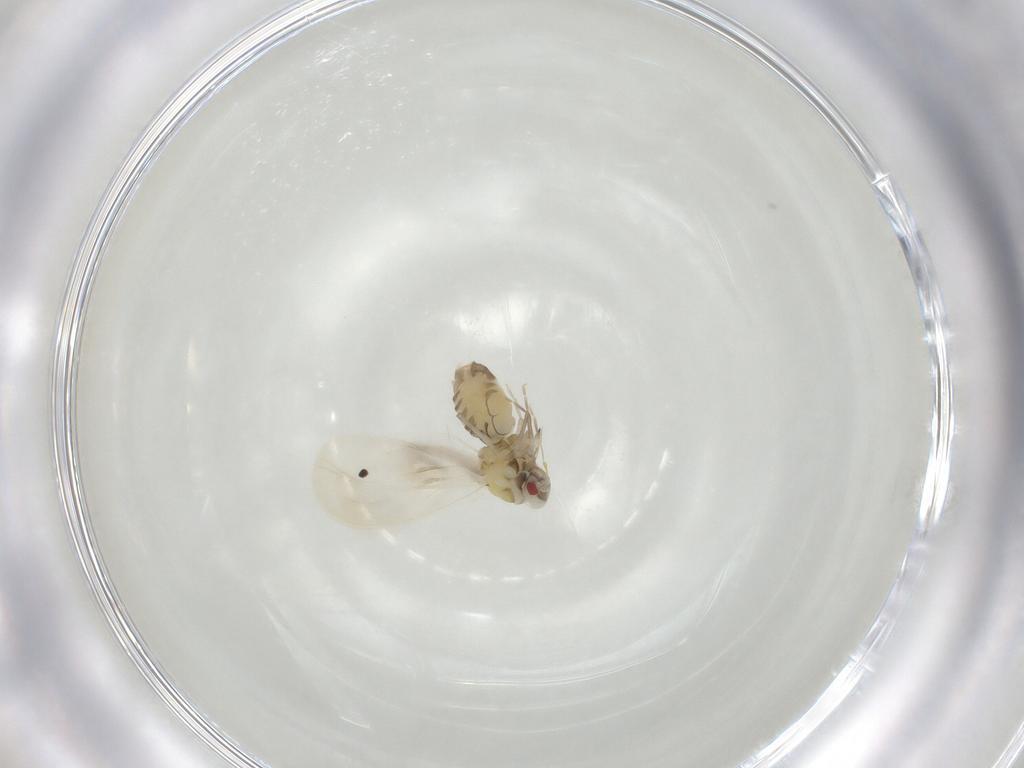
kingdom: Animalia
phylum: Arthropoda
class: Insecta
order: Hemiptera
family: Aleyrodidae
